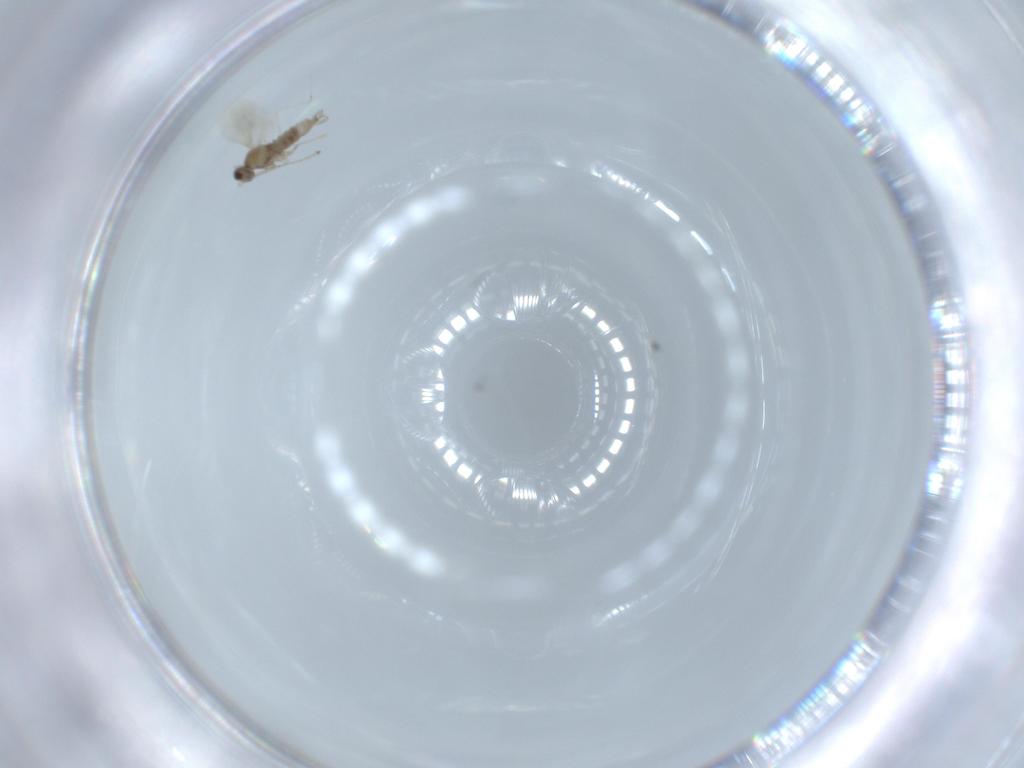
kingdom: Animalia
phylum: Arthropoda
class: Insecta
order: Diptera
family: Cecidomyiidae
